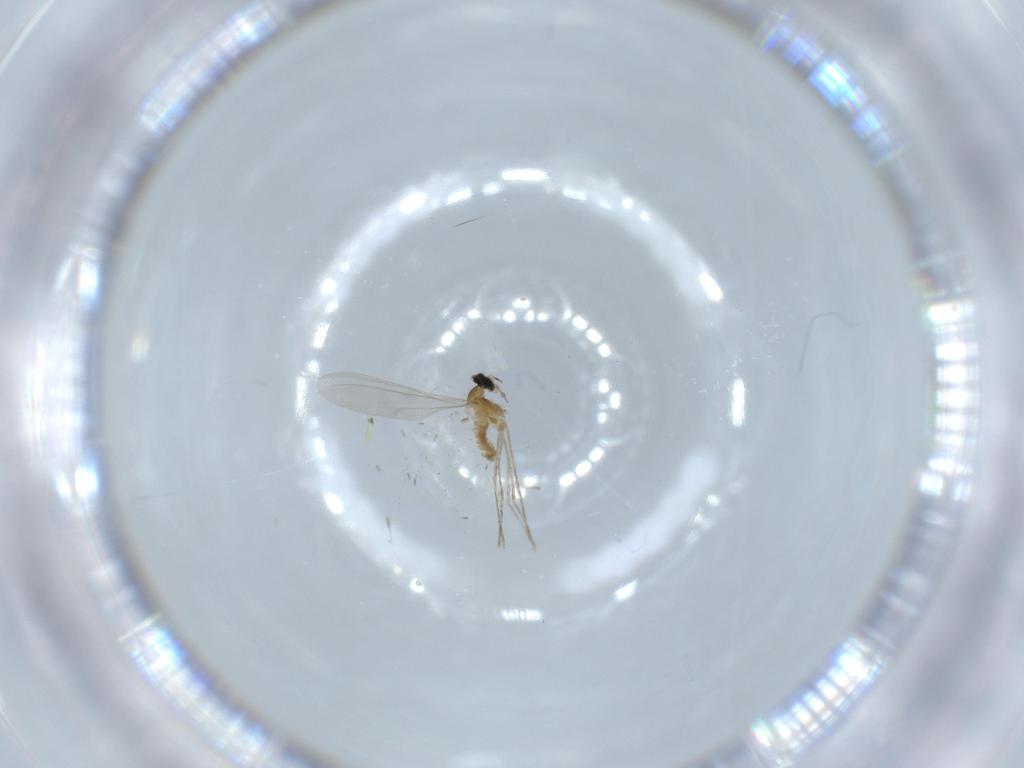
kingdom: Animalia
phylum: Arthropoda
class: Insecta
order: Diptera
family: Cecidomyiidae
